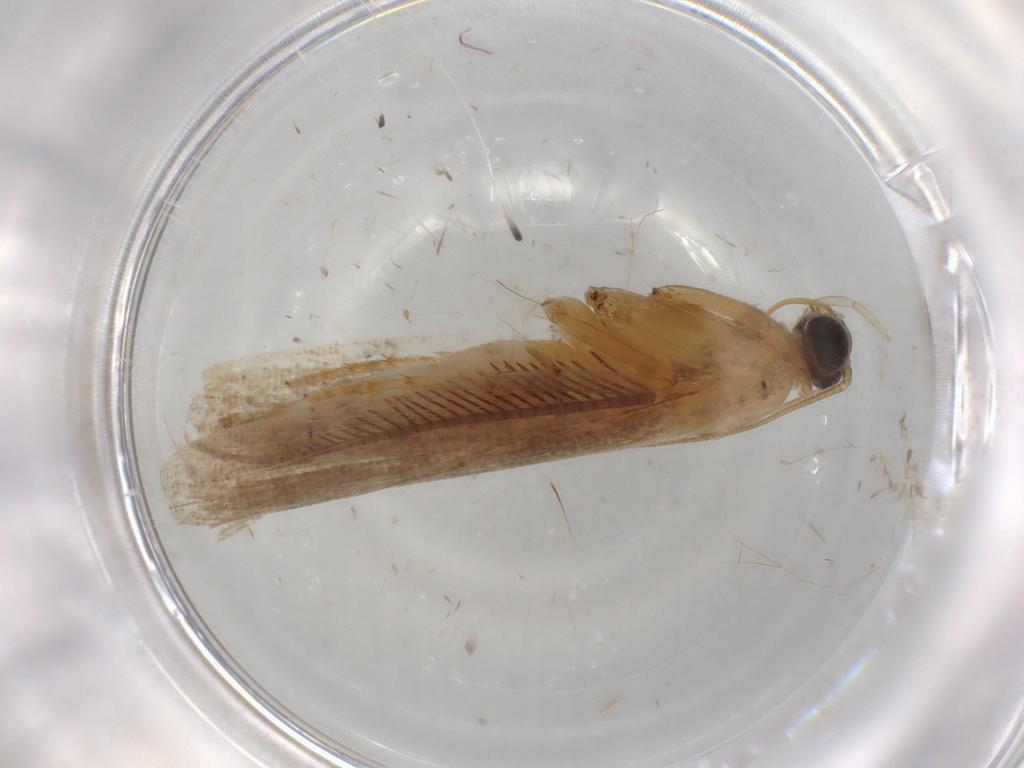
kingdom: Animalia
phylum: Arthropoda
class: Insecta
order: Lepidoptera
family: Pyralidae
